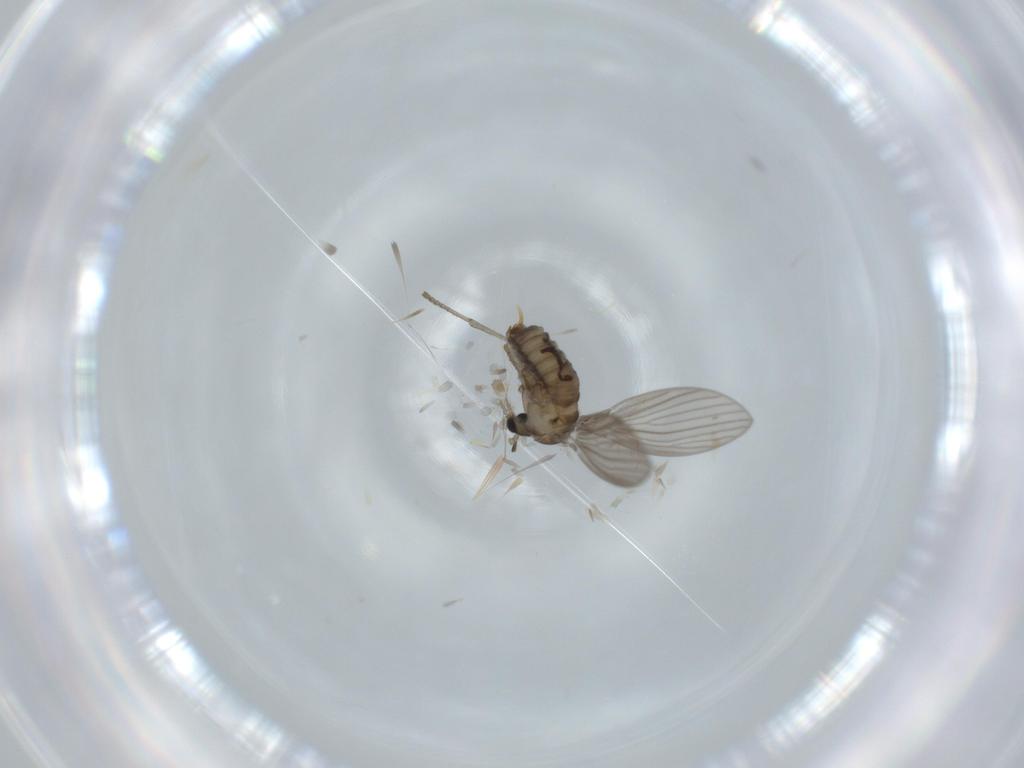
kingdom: Animalia
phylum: Arthropoda
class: Insecta
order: Diptera
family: Psychodidae
